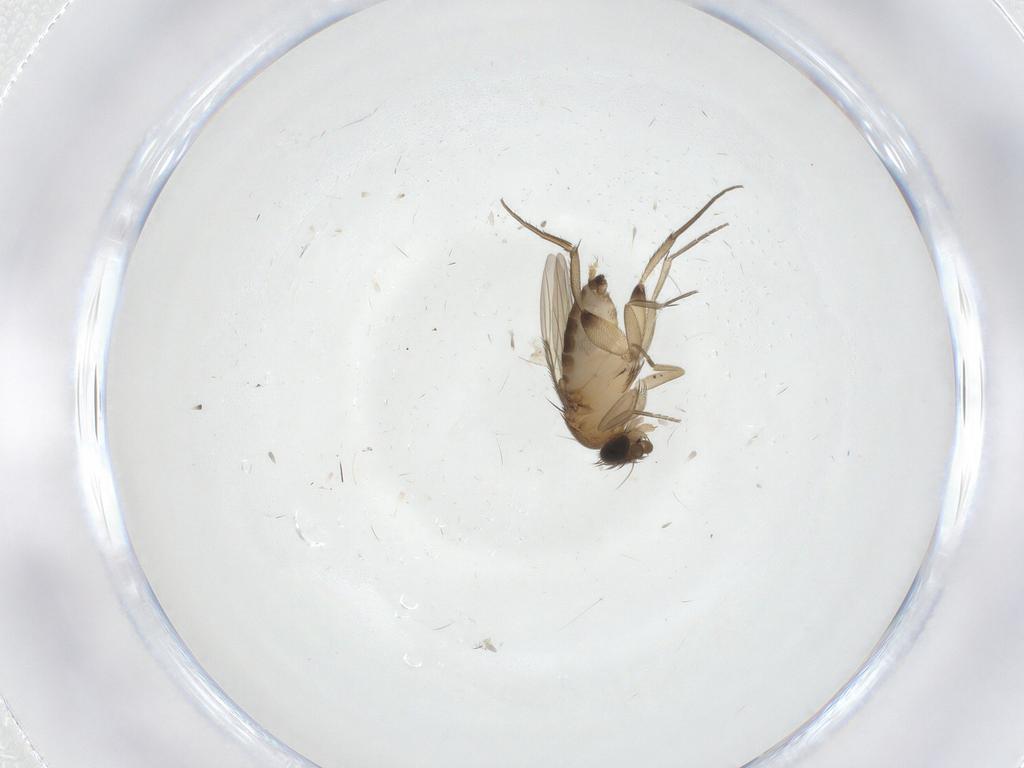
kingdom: Animalia
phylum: Arthropoda
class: Insecta
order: Diptera
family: Phoridae
